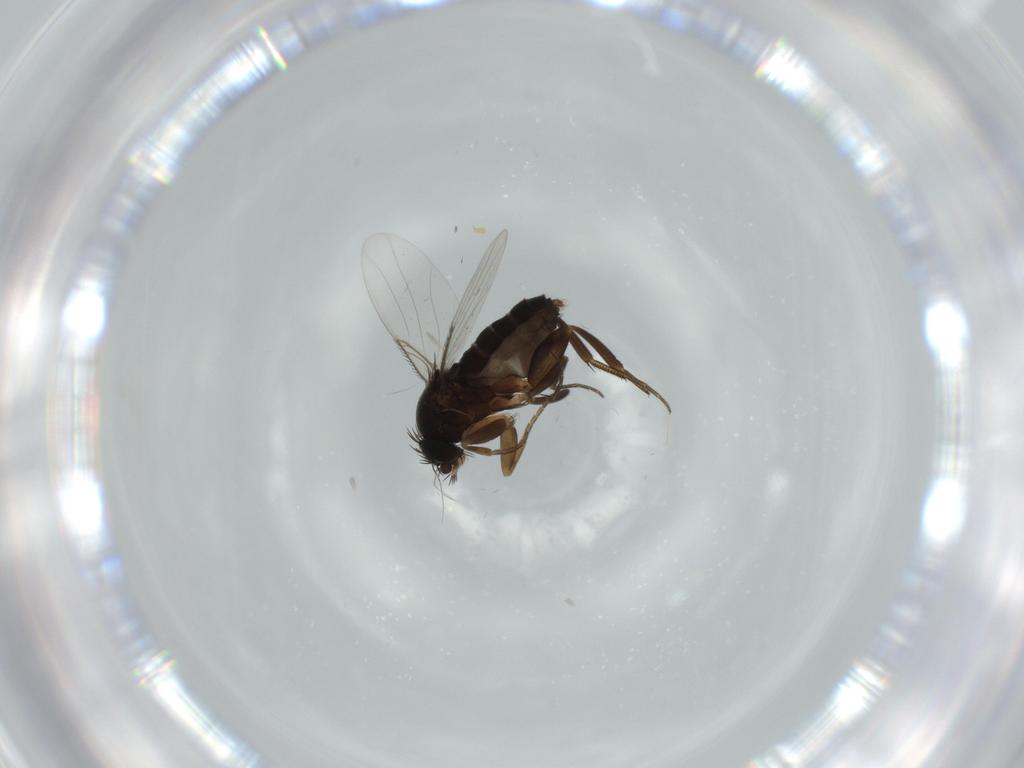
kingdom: Animalia
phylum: Arthropoda
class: Insecta
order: Diptera
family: Phoridae
